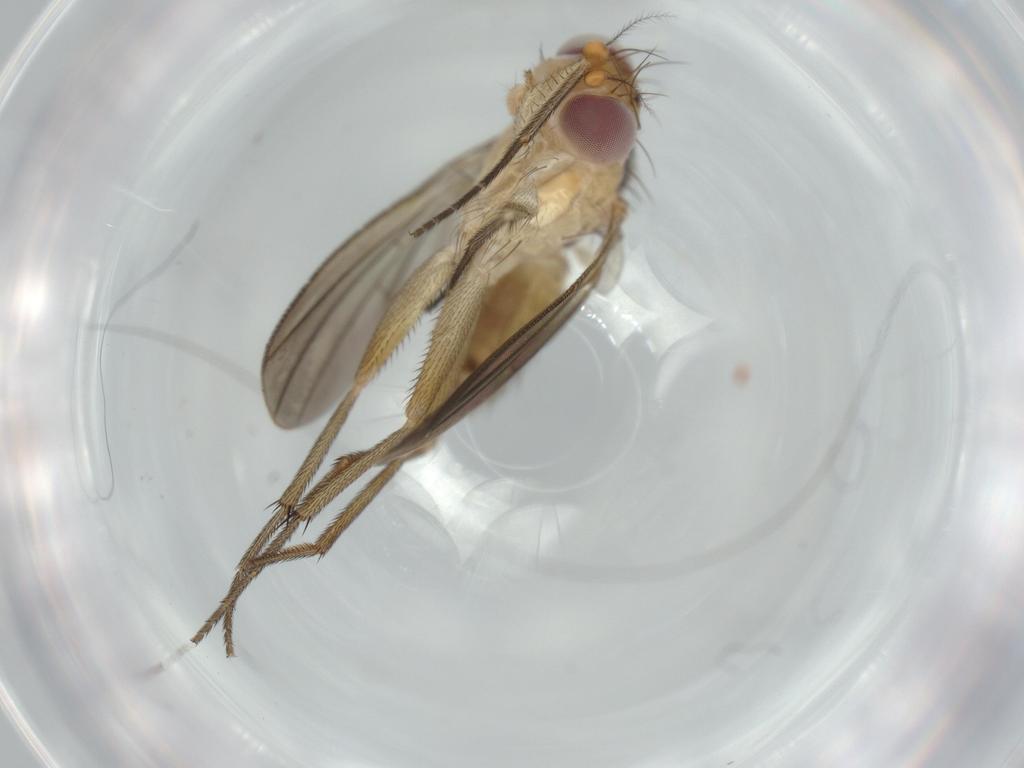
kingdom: Animalia
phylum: Arthropoda
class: Insecta
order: Diptera
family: Clusiidae
